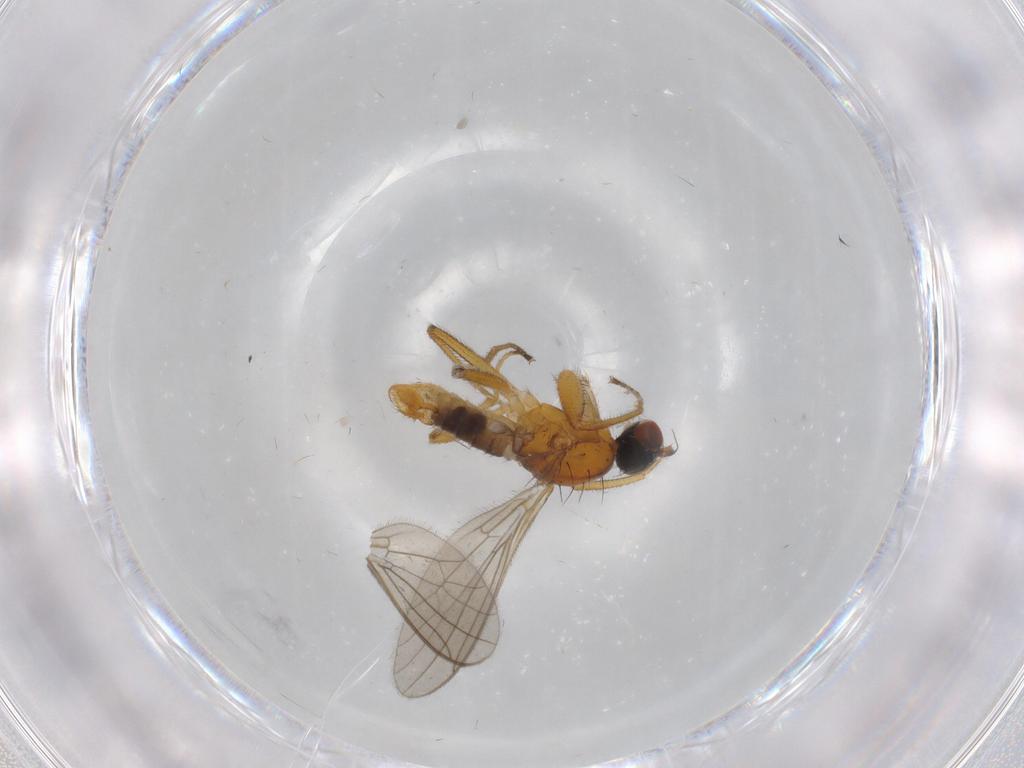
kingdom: Animalia
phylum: Arthropoda
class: Insecta
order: Diptera
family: Empididae
